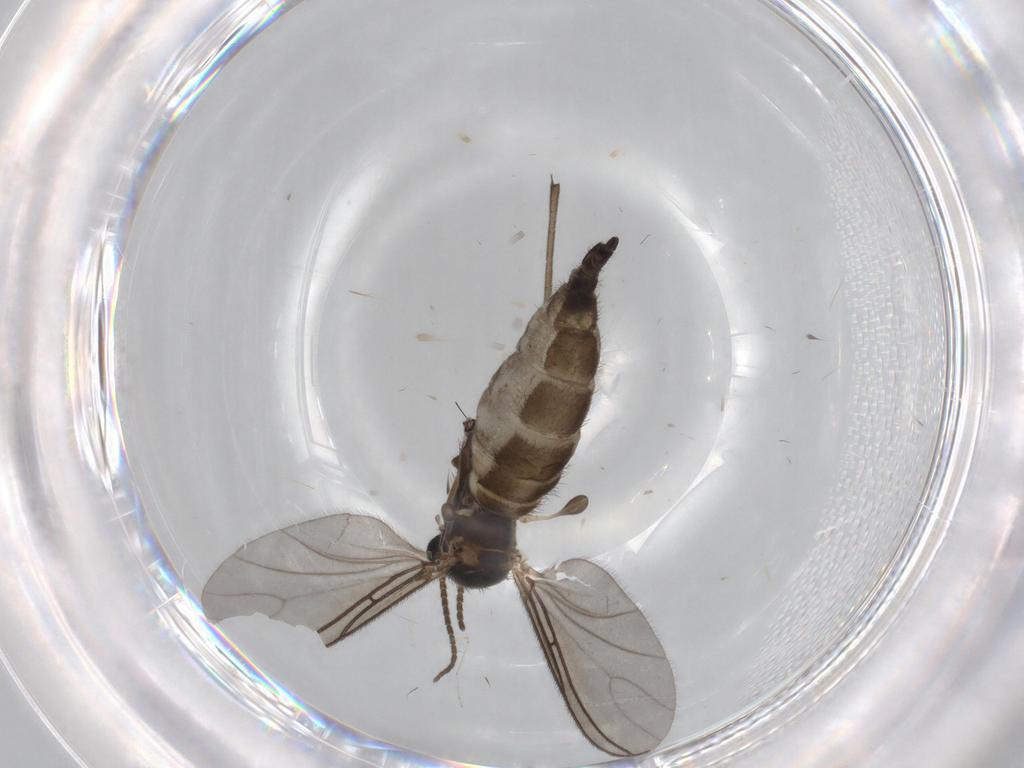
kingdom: Animalia
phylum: Arthropoda
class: Insecta
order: Diptera
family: Sciaridae
